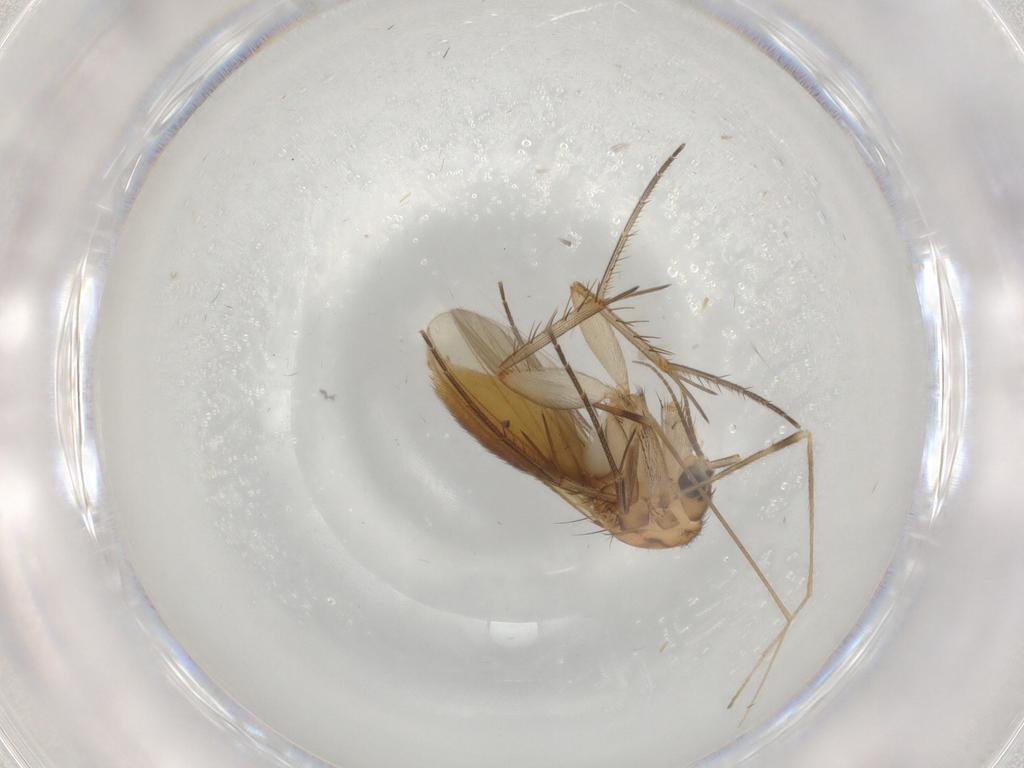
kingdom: Animalia
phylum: Arthropoda
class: Insecta
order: Diptera
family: Mycetophilidae
